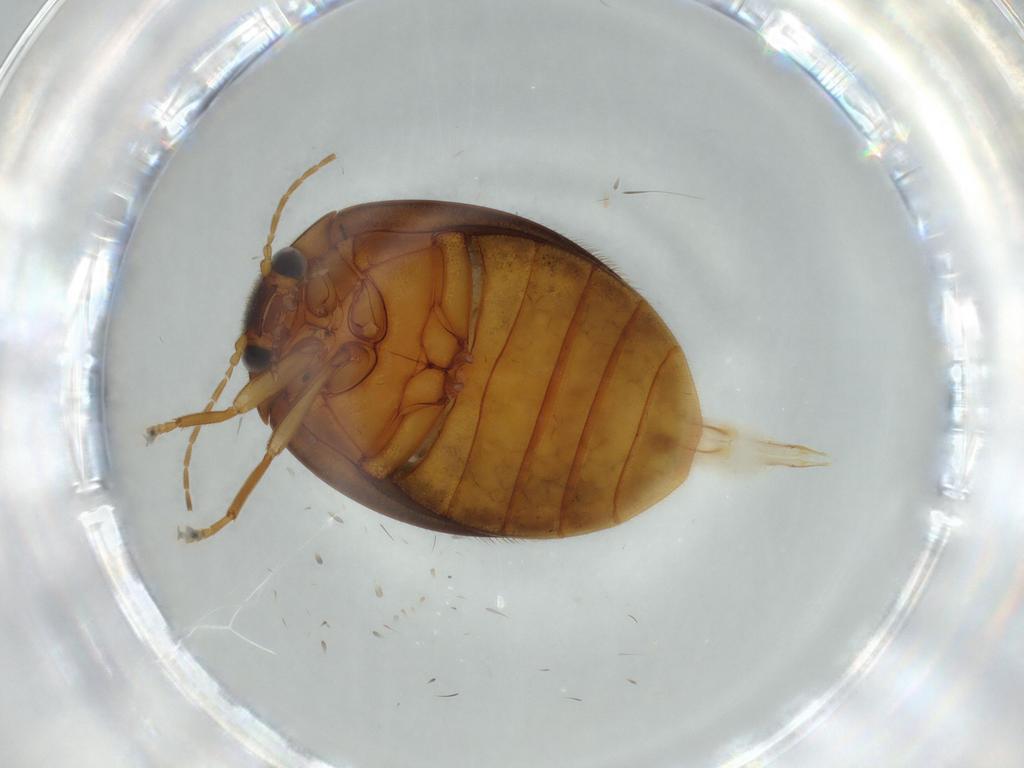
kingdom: Animalia
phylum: Arthropoda
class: Insecta
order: Coleoptera
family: Scirtidae
